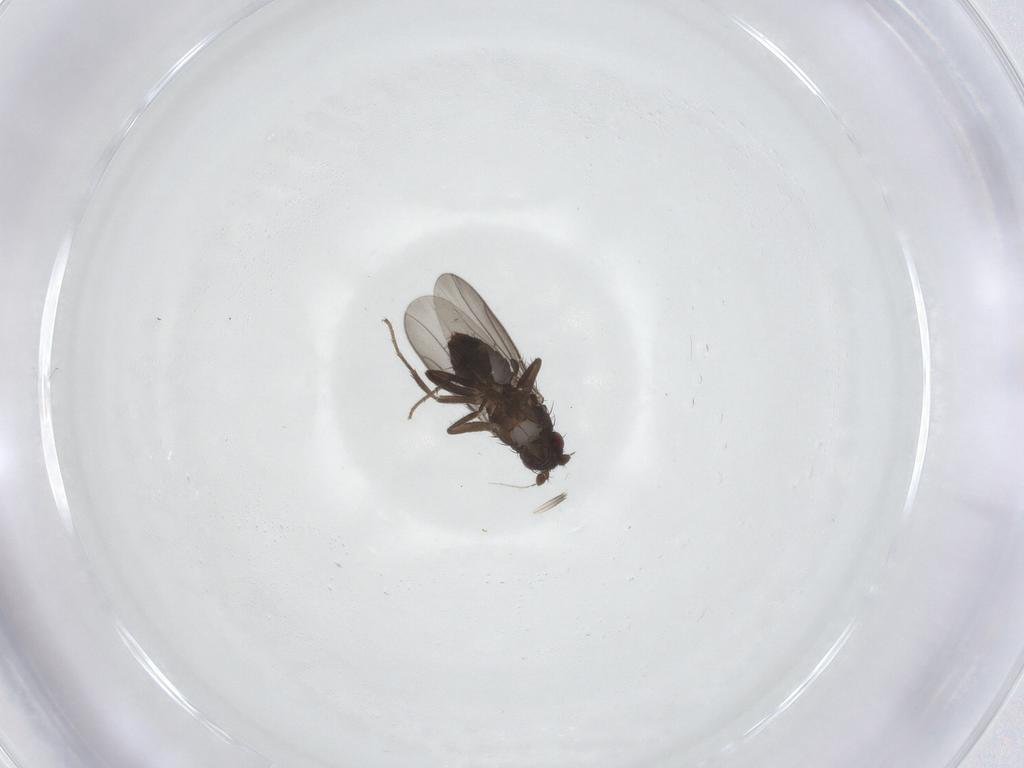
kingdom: Animalia
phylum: Arthropoda
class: Insecta
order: Diptera
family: Sphaeroceridae
